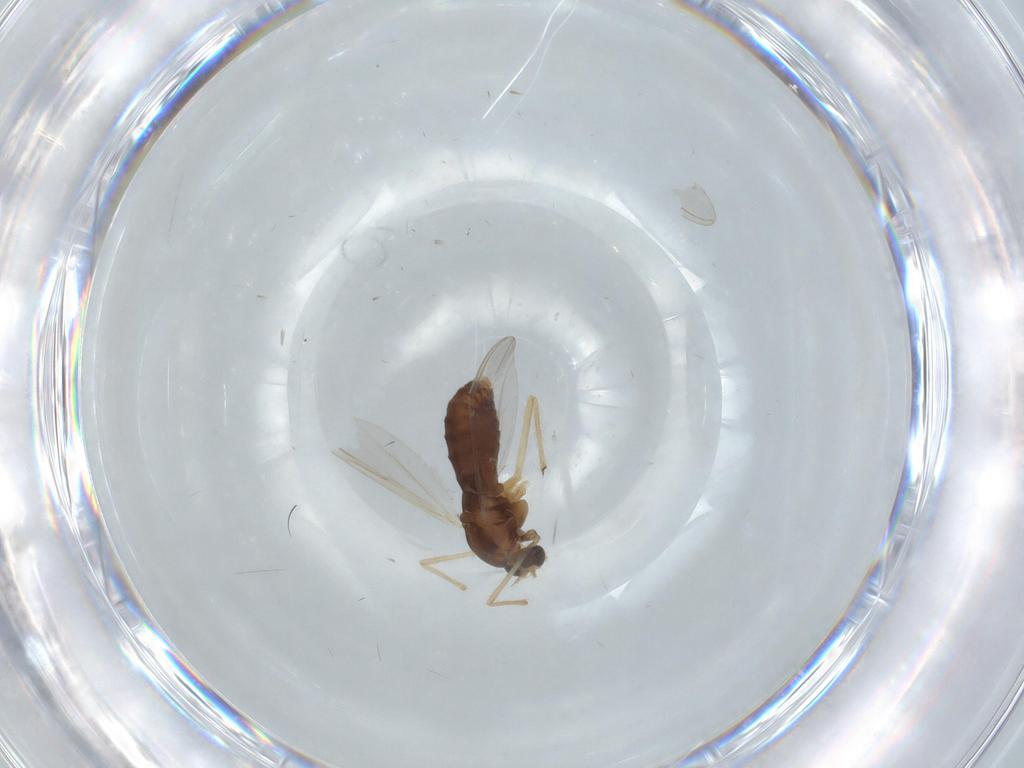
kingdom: Animalia
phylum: Arthropoda
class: Insecta
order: Diptera
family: Chironomidae
